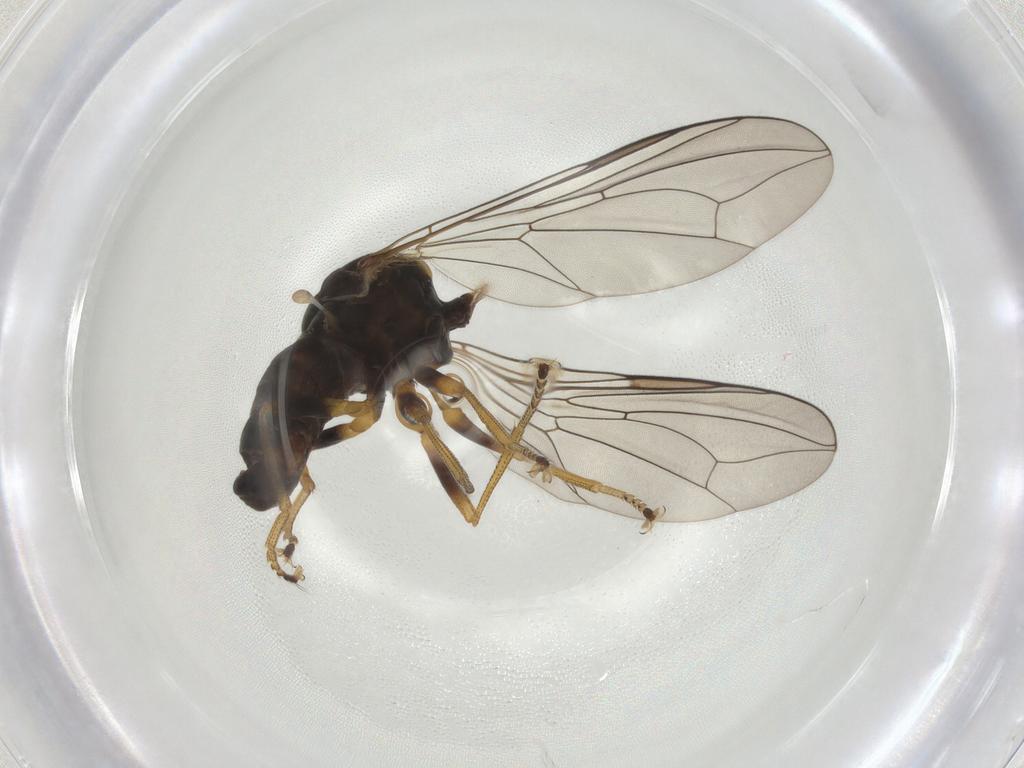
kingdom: Animalia
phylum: Arthropoda
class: Insecta
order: Diptera
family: Pipunculidae
